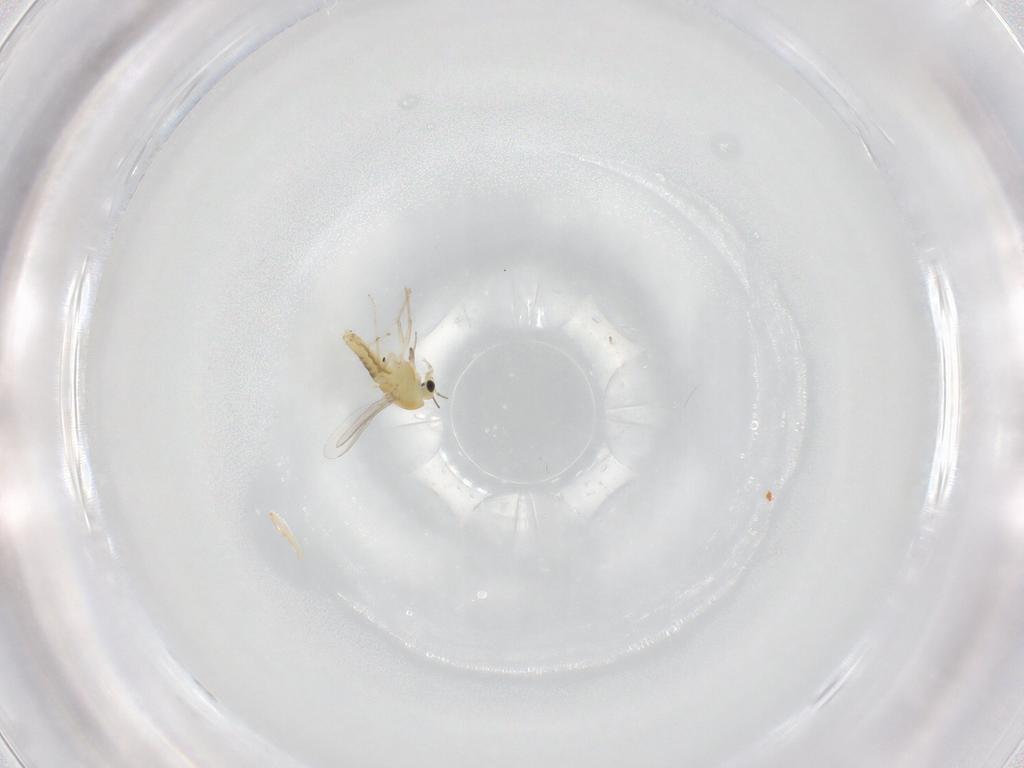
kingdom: Animalia
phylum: Arthropoda
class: Insecta
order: Diptera
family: Chironomidae
